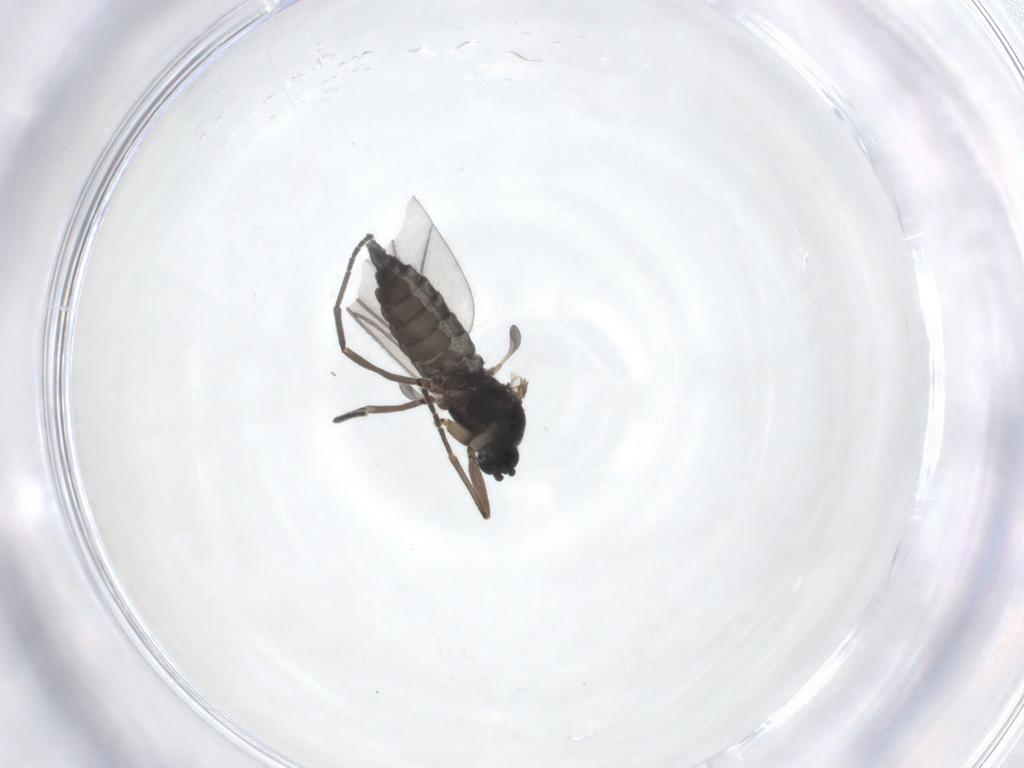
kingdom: Animalia
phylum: Arthropoda
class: Insecta
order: Diptera
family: Sciaridae
